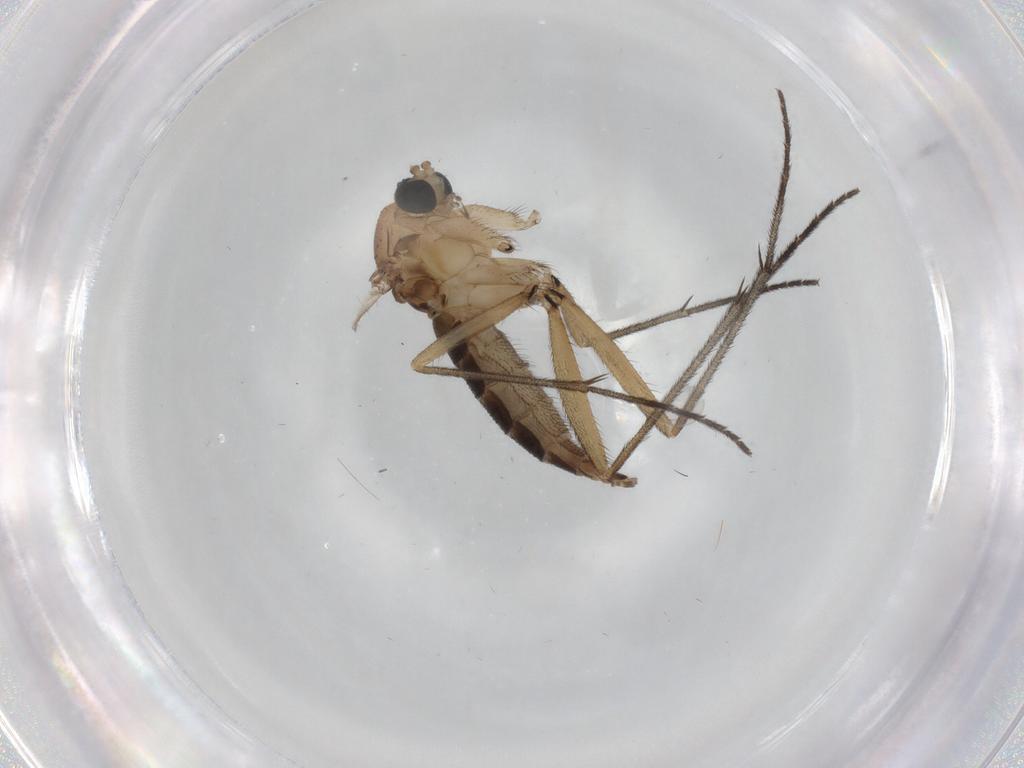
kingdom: Animalia
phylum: Arthropoda
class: Insecta
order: Diptera
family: Sciaridae
